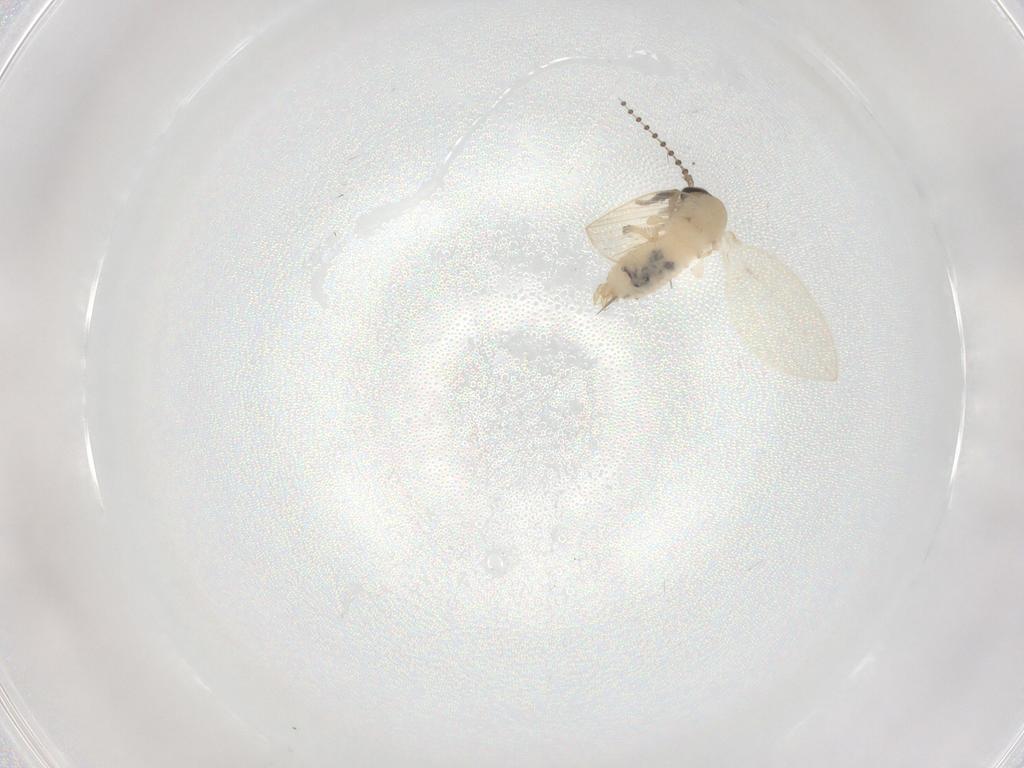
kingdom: Animalia
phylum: Arthropoda
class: Insecta
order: Diptera
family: Psychodidae
